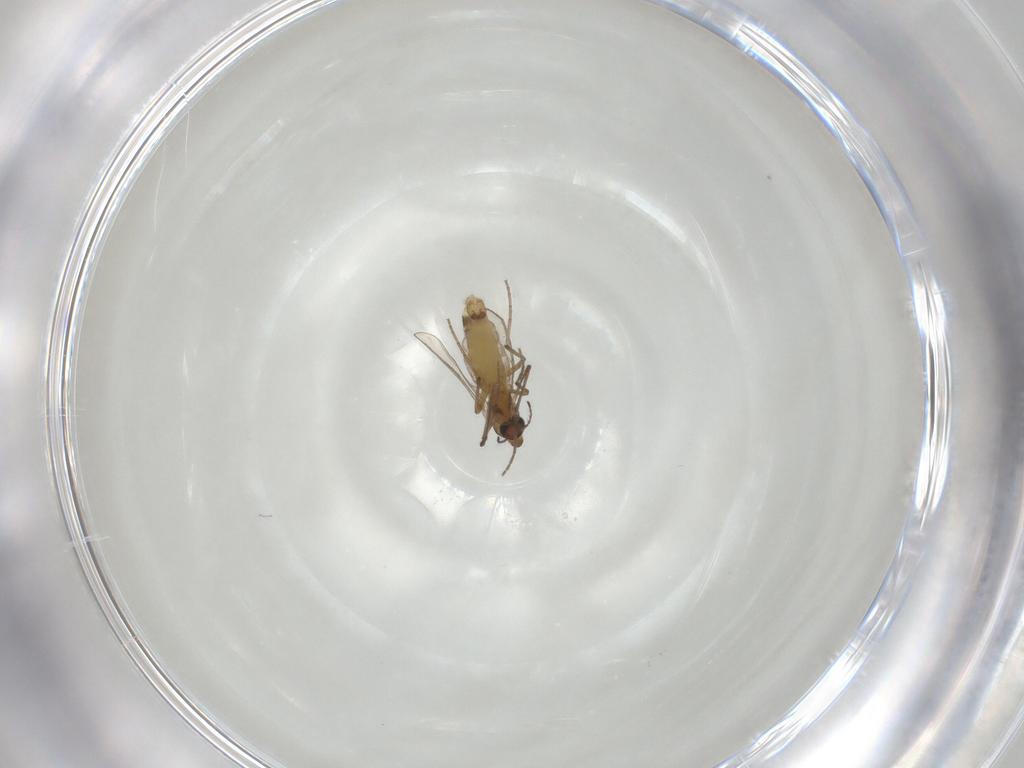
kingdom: Animalia
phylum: Arthropoda
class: Insecta
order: Diptera
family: Chironomidae
